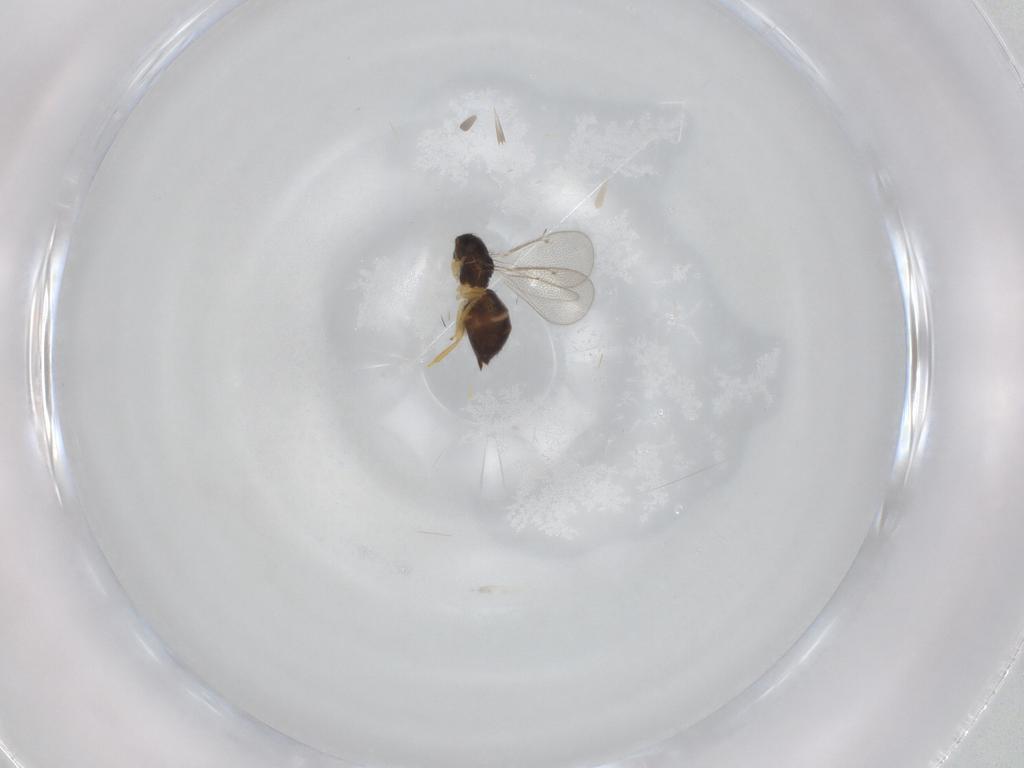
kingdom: Animalia
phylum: Arthropoda
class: Insecta
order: Hymenoptera
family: Eulophidae
